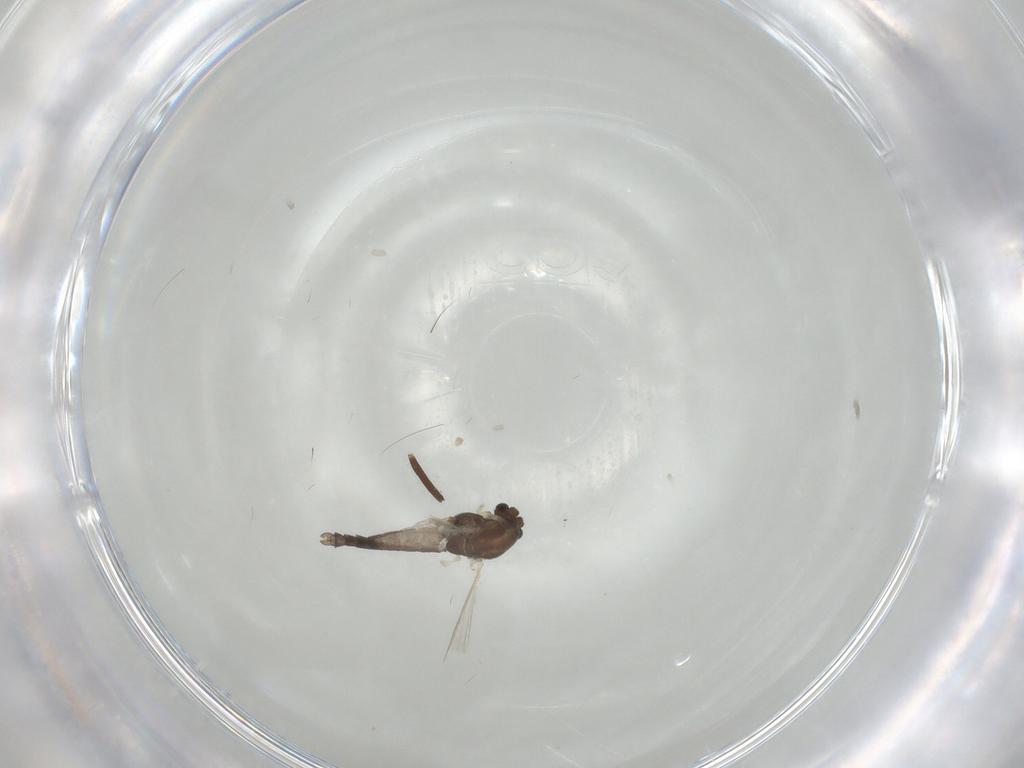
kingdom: Animalia
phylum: Arthropoda
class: Insecta
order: Diptera
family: Chironomidae
